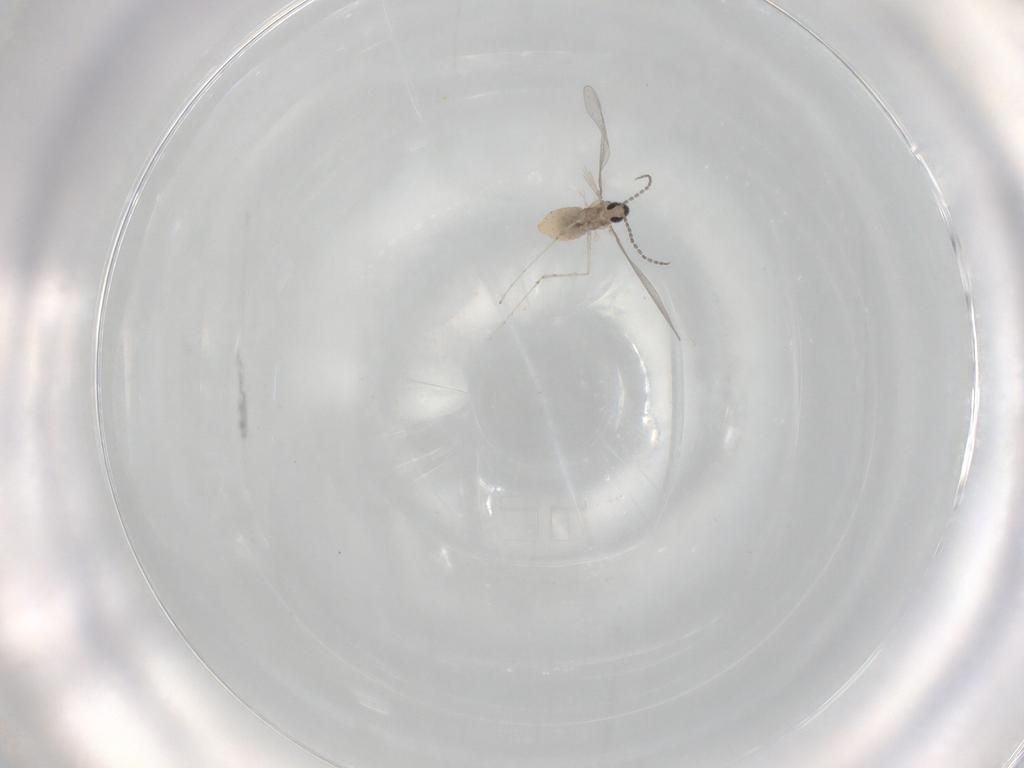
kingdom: Animalia
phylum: Arthropoda
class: Insecta
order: Diptera
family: Cecidomyiidae
